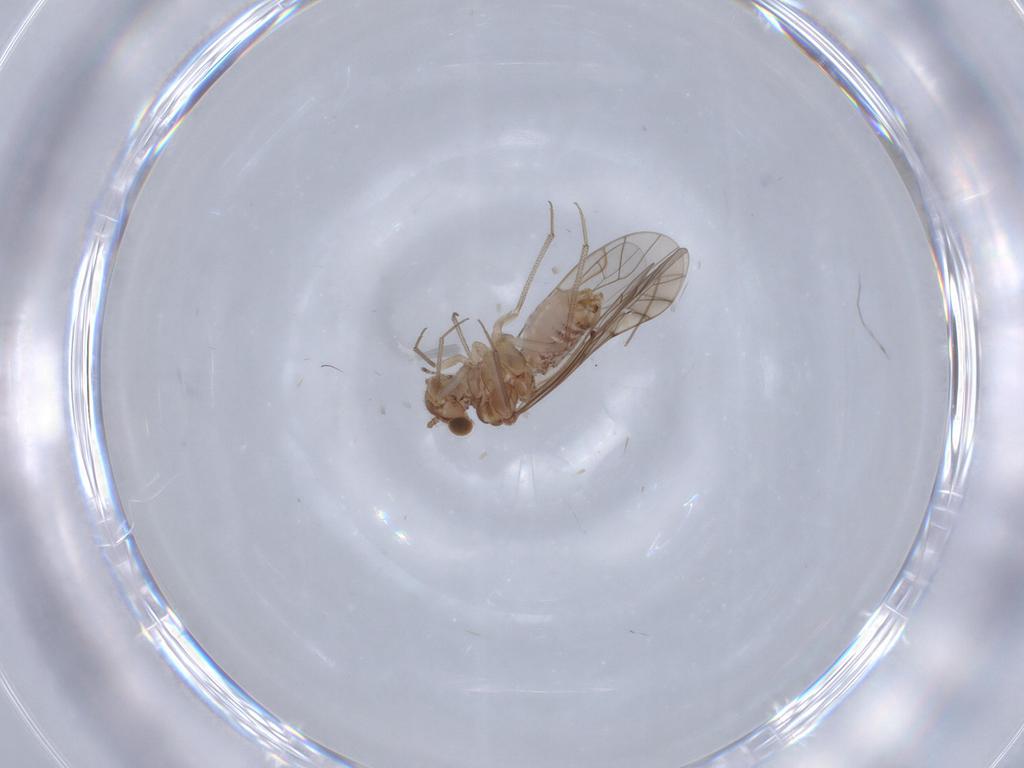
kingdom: Animalia
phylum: Arthropoda
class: Insecta
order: Psocodea
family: Lachesillidae
